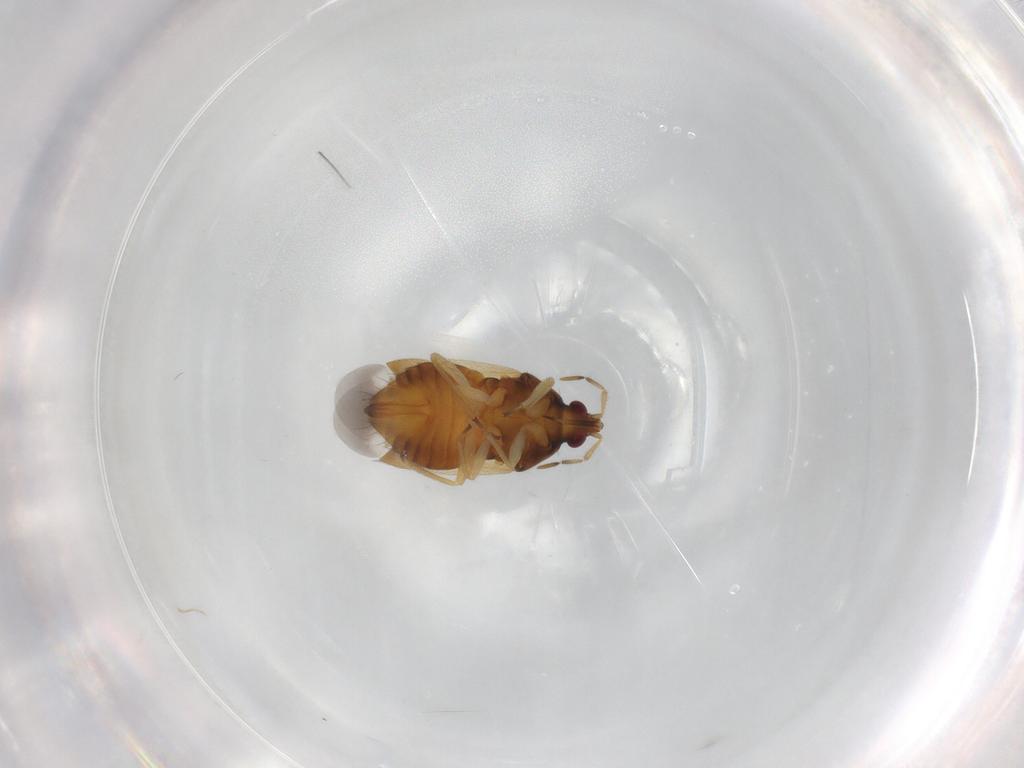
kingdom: Animalia
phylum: Arthropoda
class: Insecta
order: Hemiptera
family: Anthocoridae
